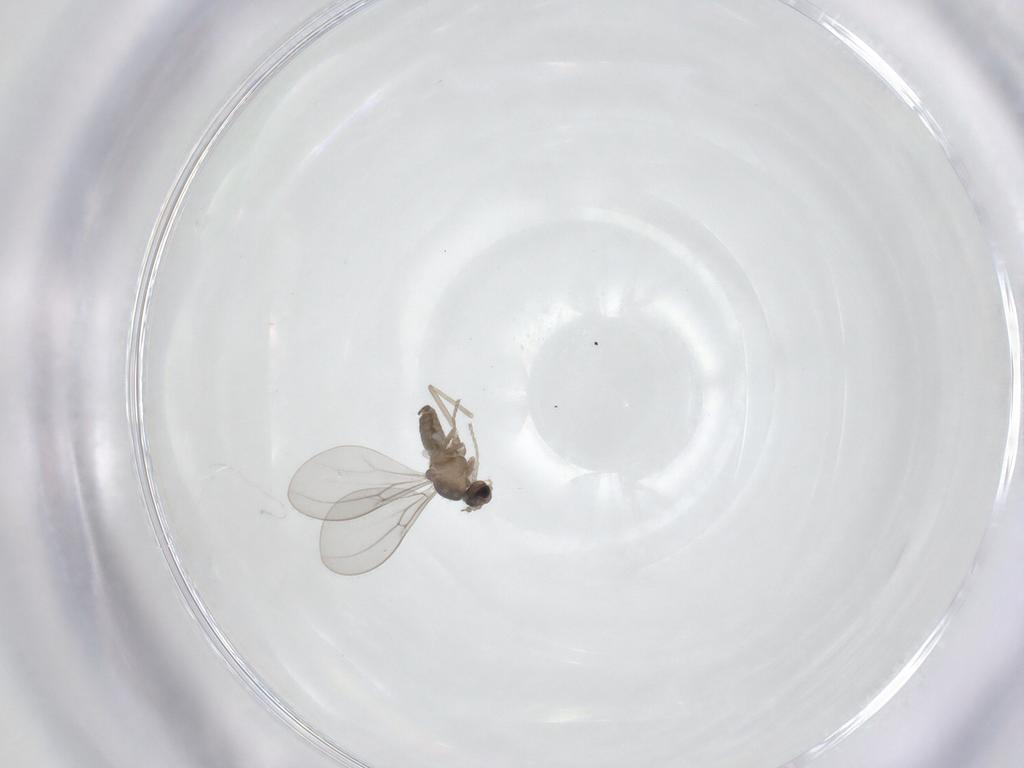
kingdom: Animalia
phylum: Arthropoda
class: Insecta
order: Diptera
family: Cecidomyiidae
